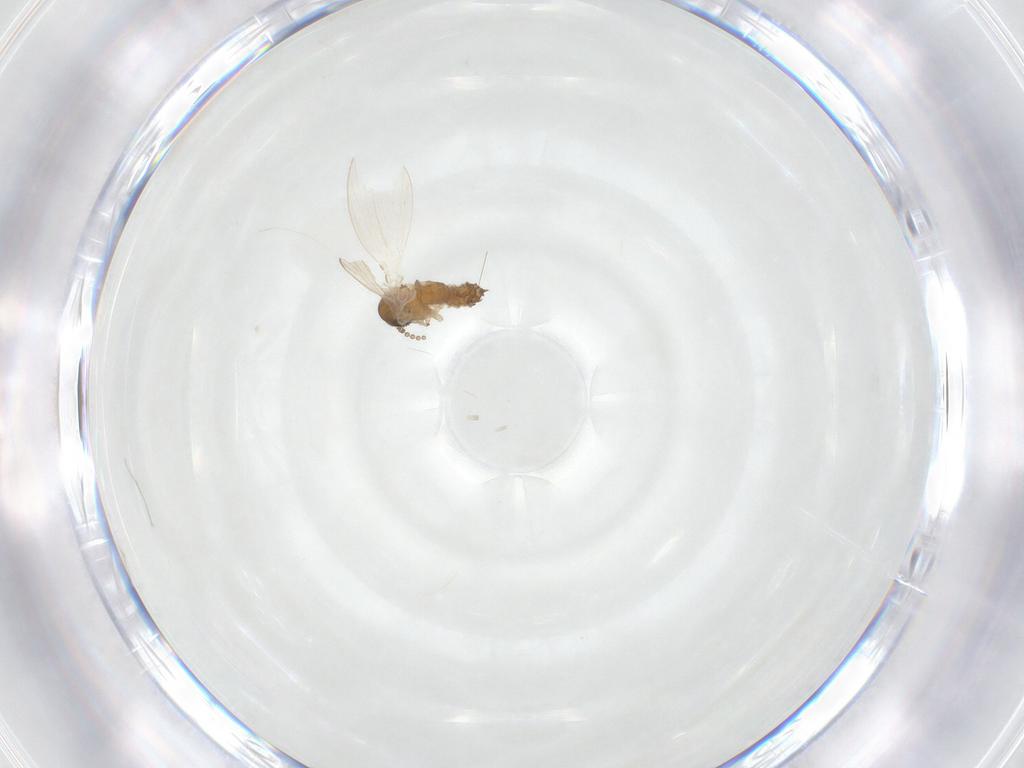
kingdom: Animalia
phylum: Arthropoda
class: Insecta
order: Diptera
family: Psychodidae
